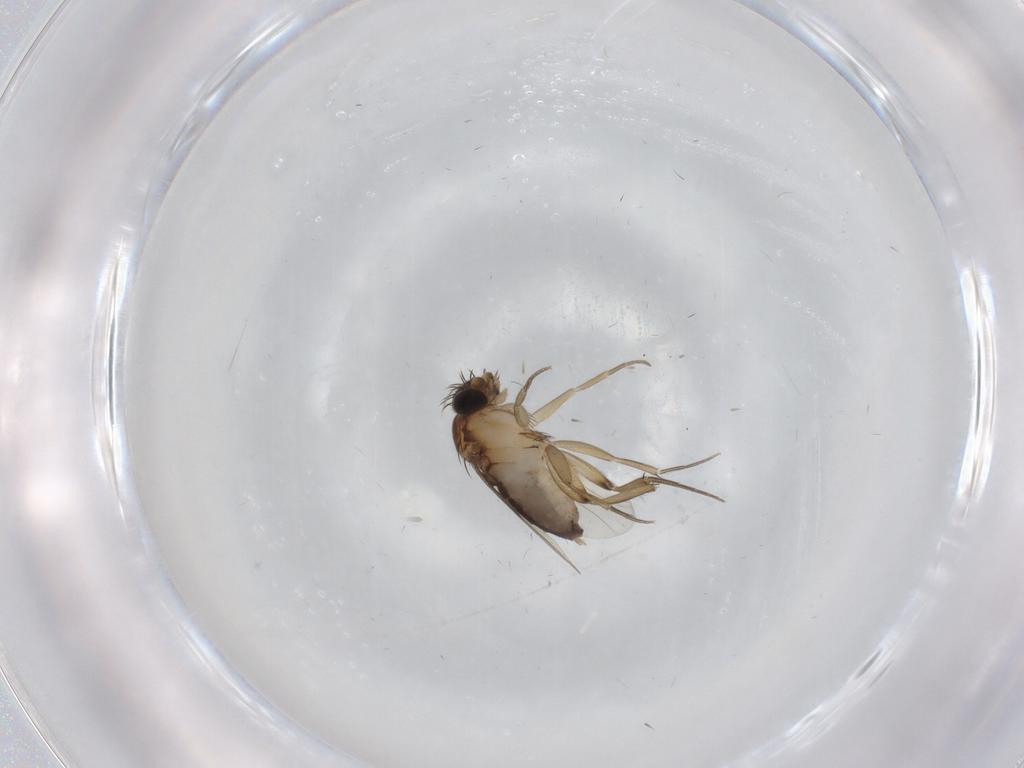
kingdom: Animalia
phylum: Arthropoda
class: Insecta
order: Diptera
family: Phoridae
